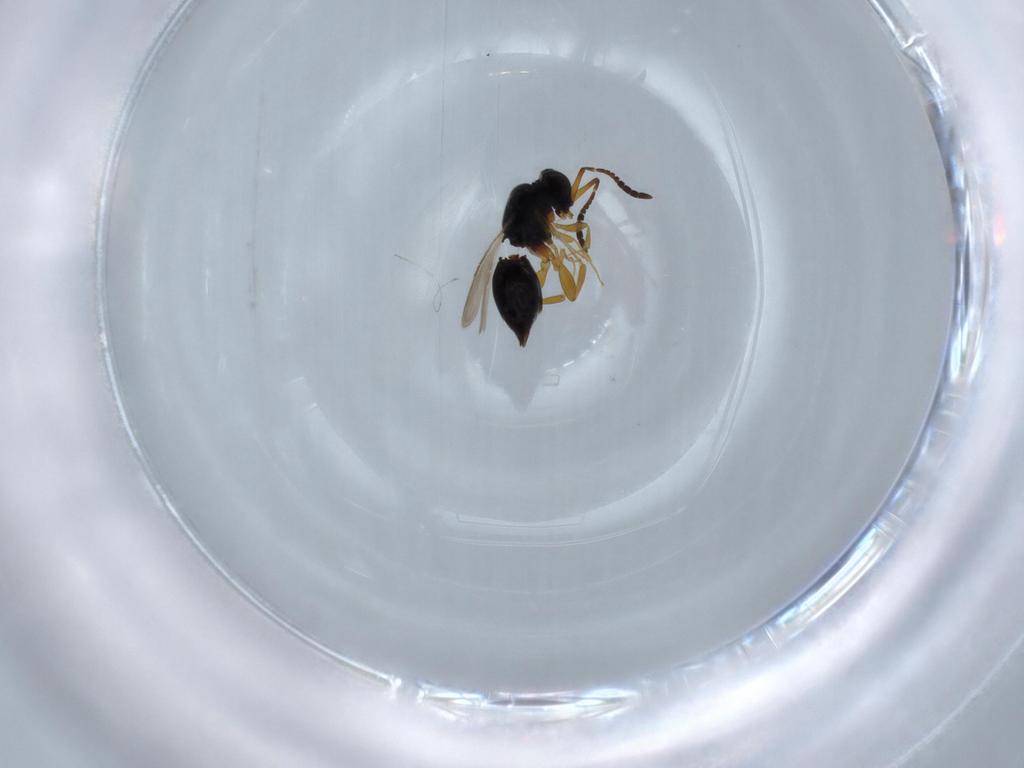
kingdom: Animalia
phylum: Arthropoda
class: Insecta
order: Hymenoptera
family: Ceraphronidae
